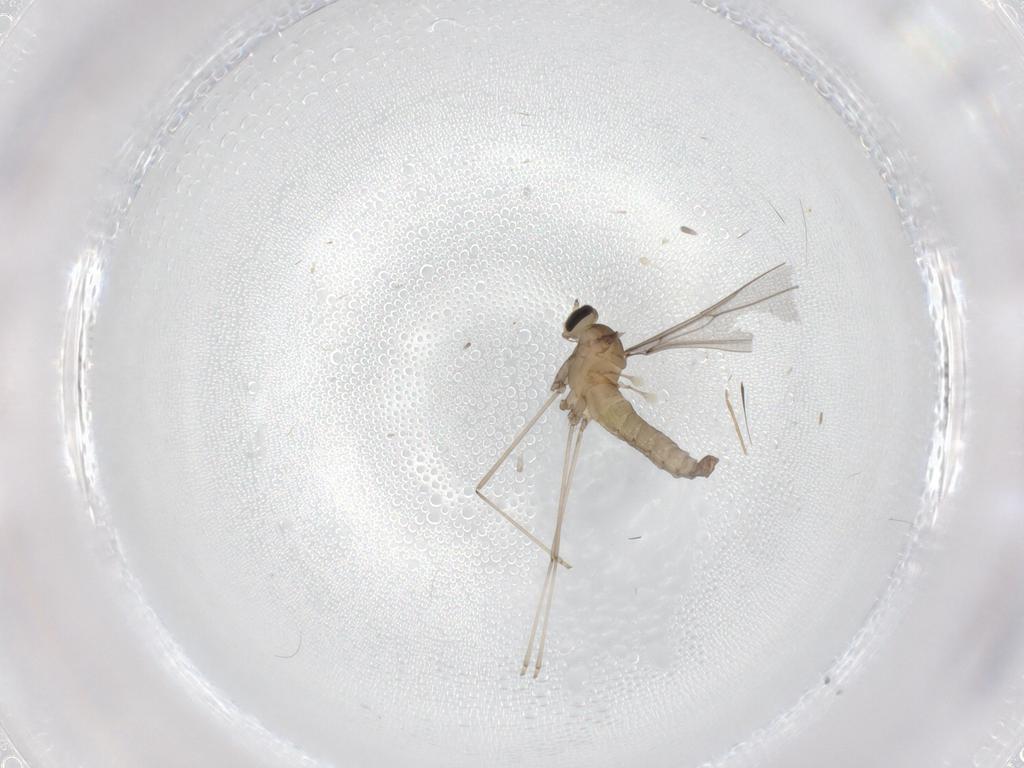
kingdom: Animalia
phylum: Arthropoda
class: Insecta
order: Diptera
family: Cecidomyiidae
